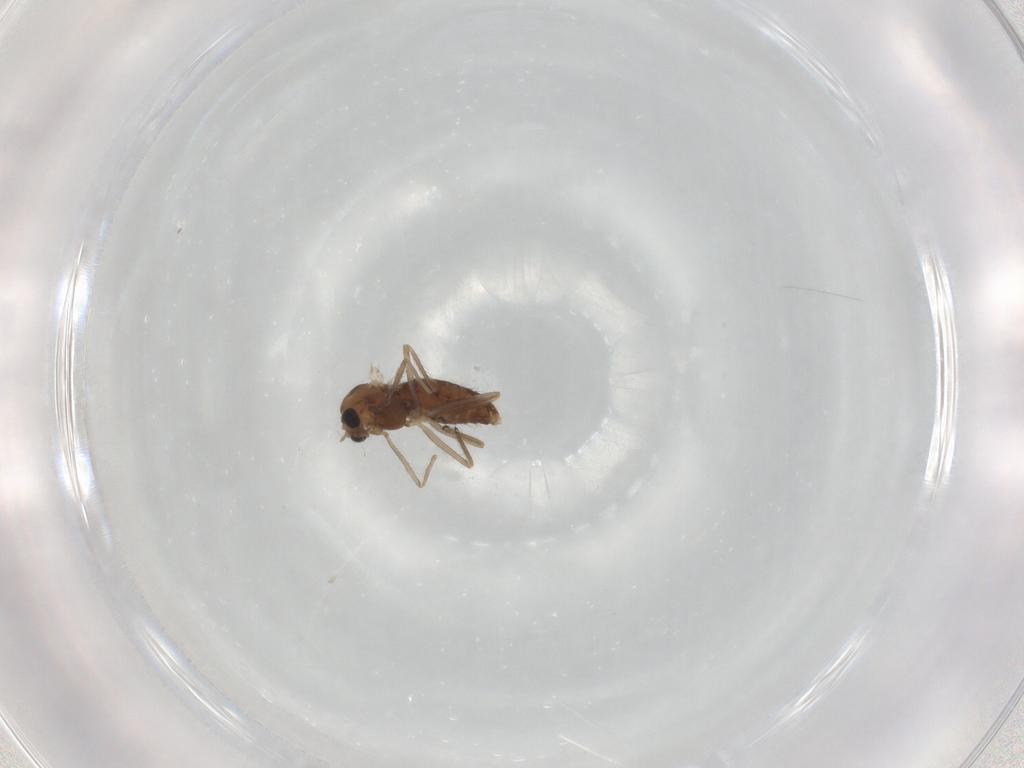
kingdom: Animalia
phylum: Arthropoda
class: Insecta
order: Diptera
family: Chironomidae
